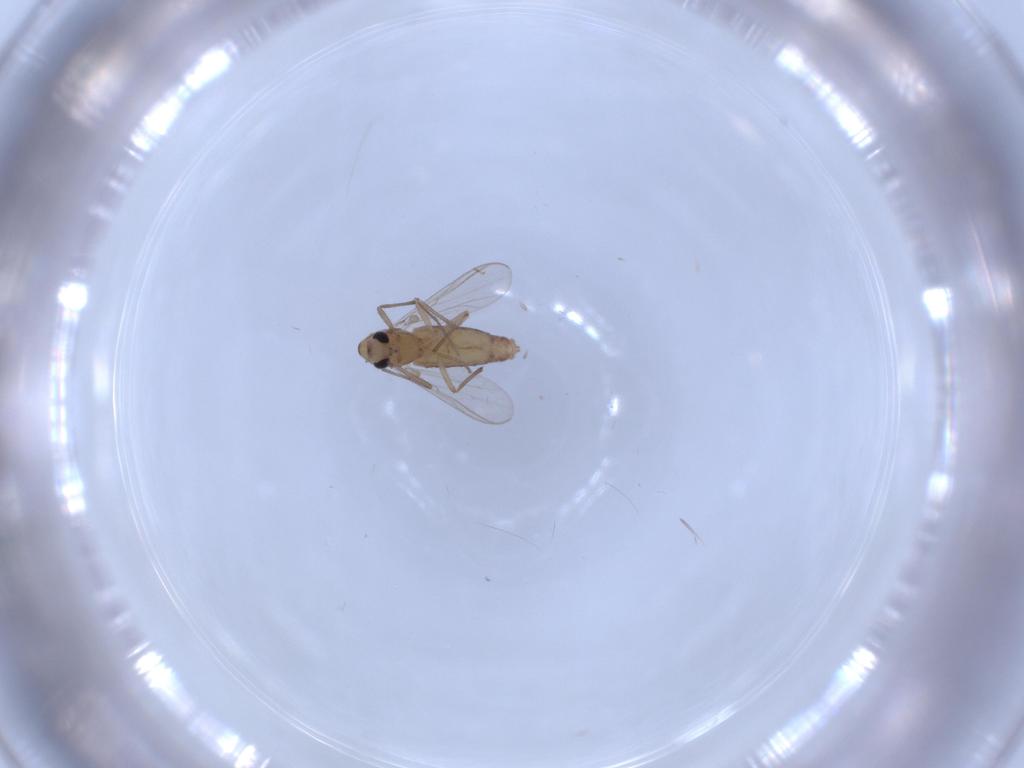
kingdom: Animalia
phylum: Arthropoda
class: Insecta
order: Diptera
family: Chironomidae
